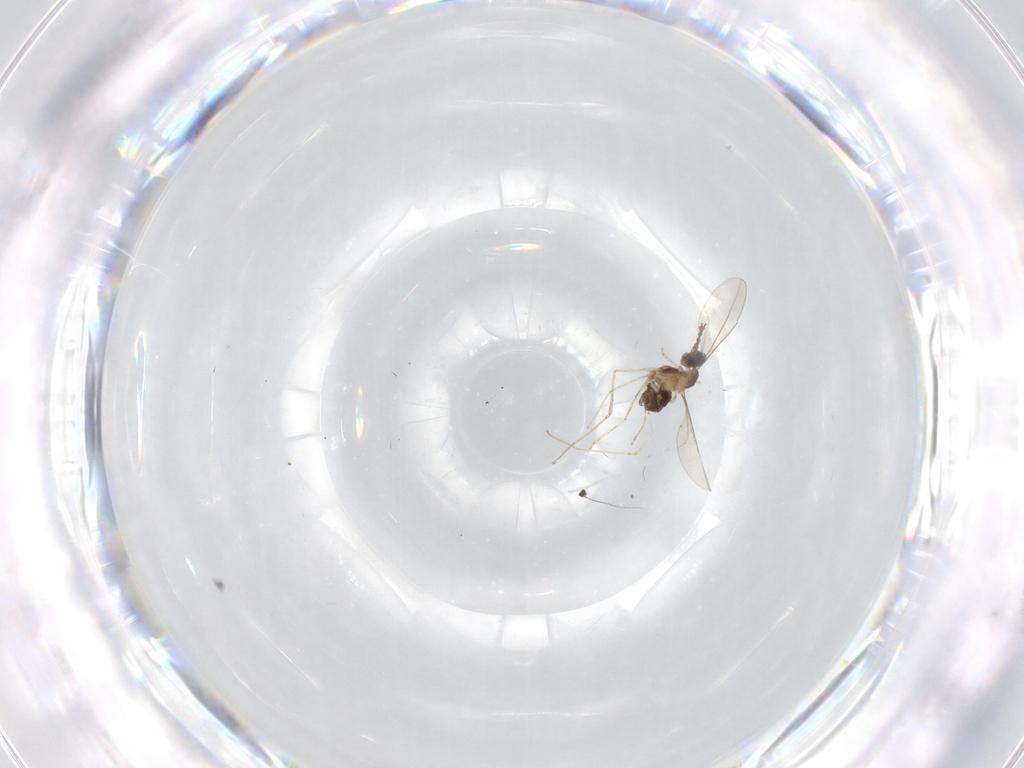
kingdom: Animalia
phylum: Arthropoda
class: Insecta
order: Diptera
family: Cecidomyiidae
